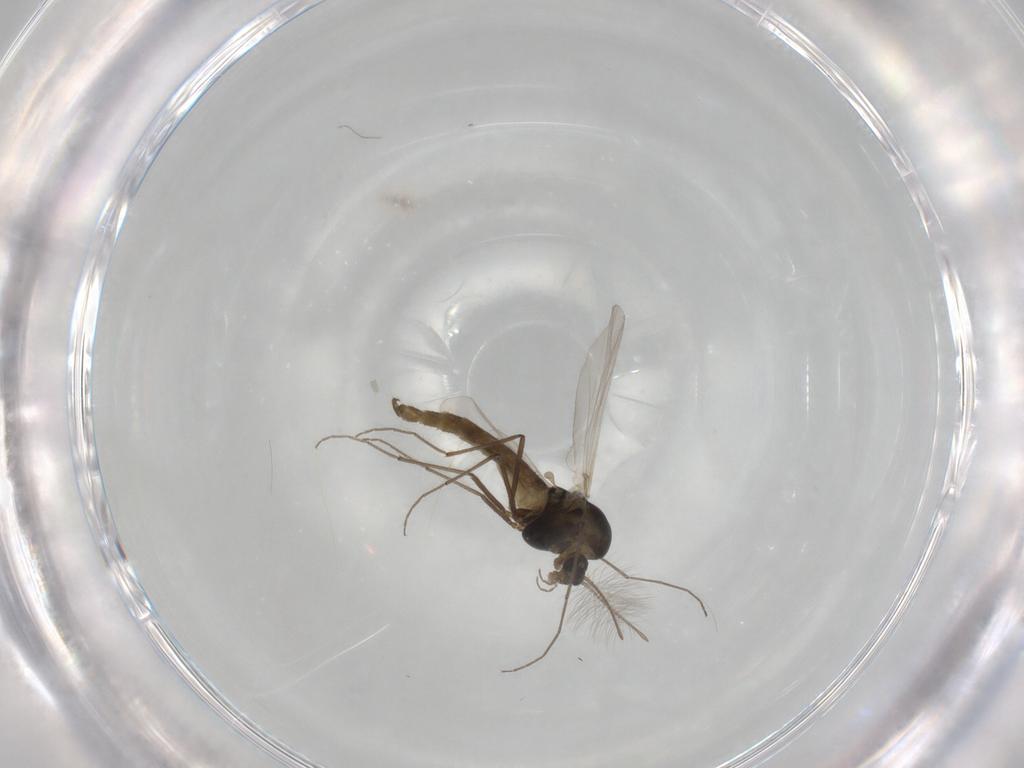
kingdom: Animalia
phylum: Arthropoda
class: Insecta
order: Diptera
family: Chironomidae
